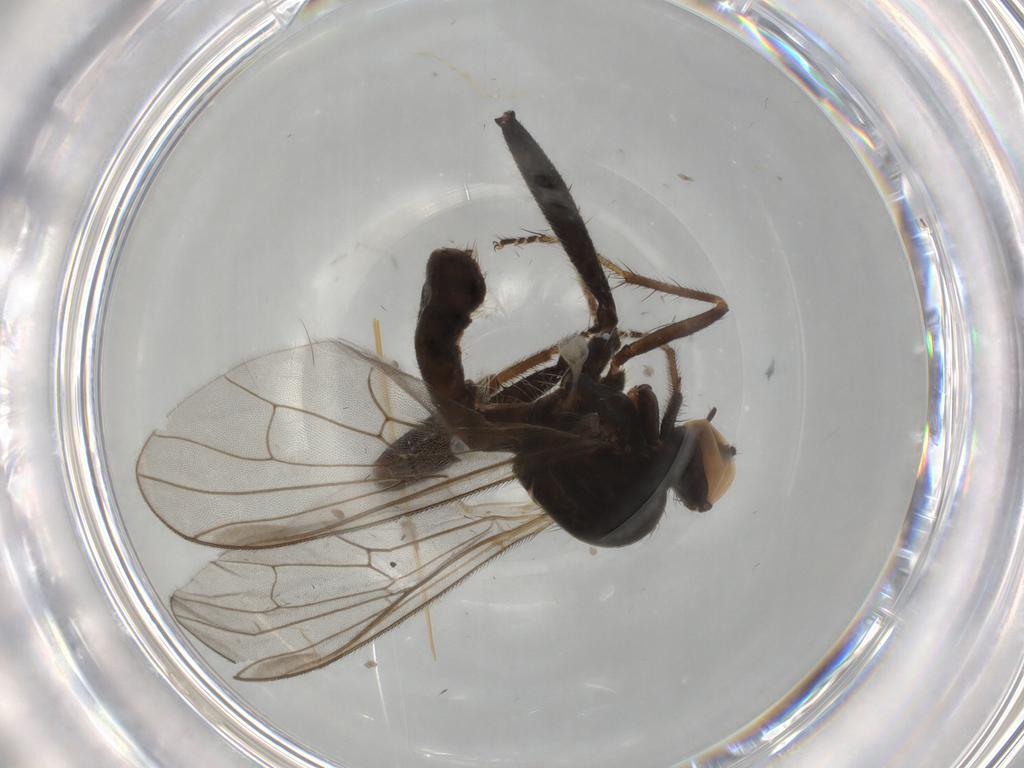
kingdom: Animalia
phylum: Arthropoda
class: Insecta
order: Diptera
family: Hybotidae
